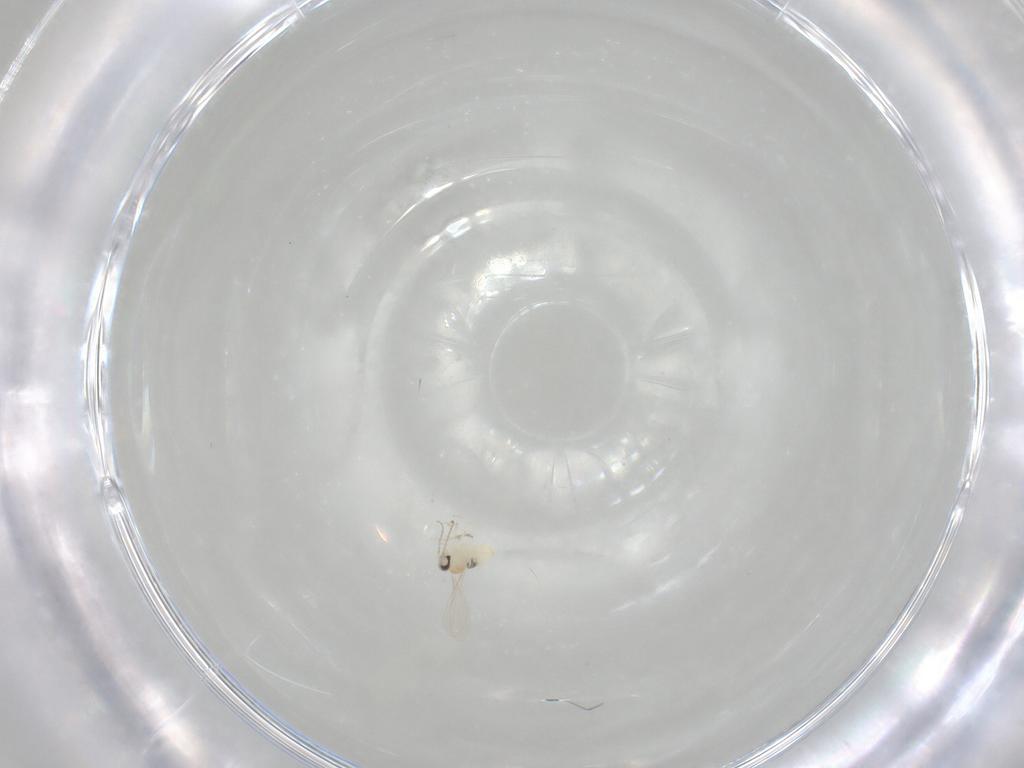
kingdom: Animalia
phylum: Arthropoda
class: Insecta
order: Diptera
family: Cecidomyiidae
